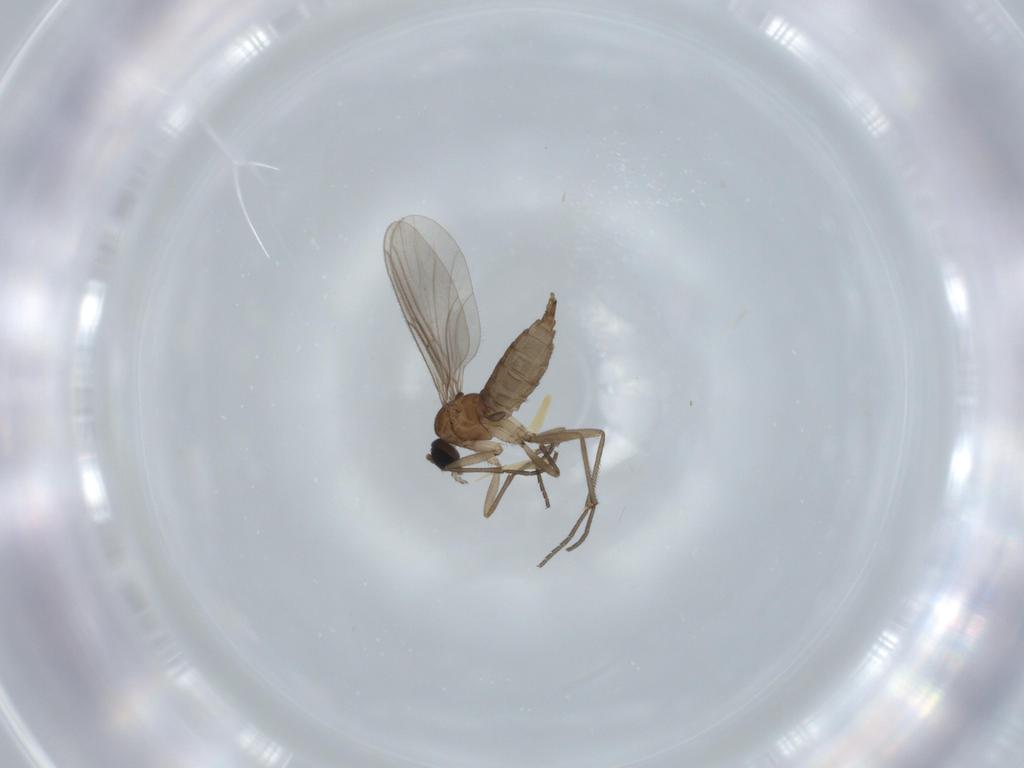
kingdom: Animalia
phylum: Arthropoda
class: Insecta
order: Diptera
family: Sciaridae
